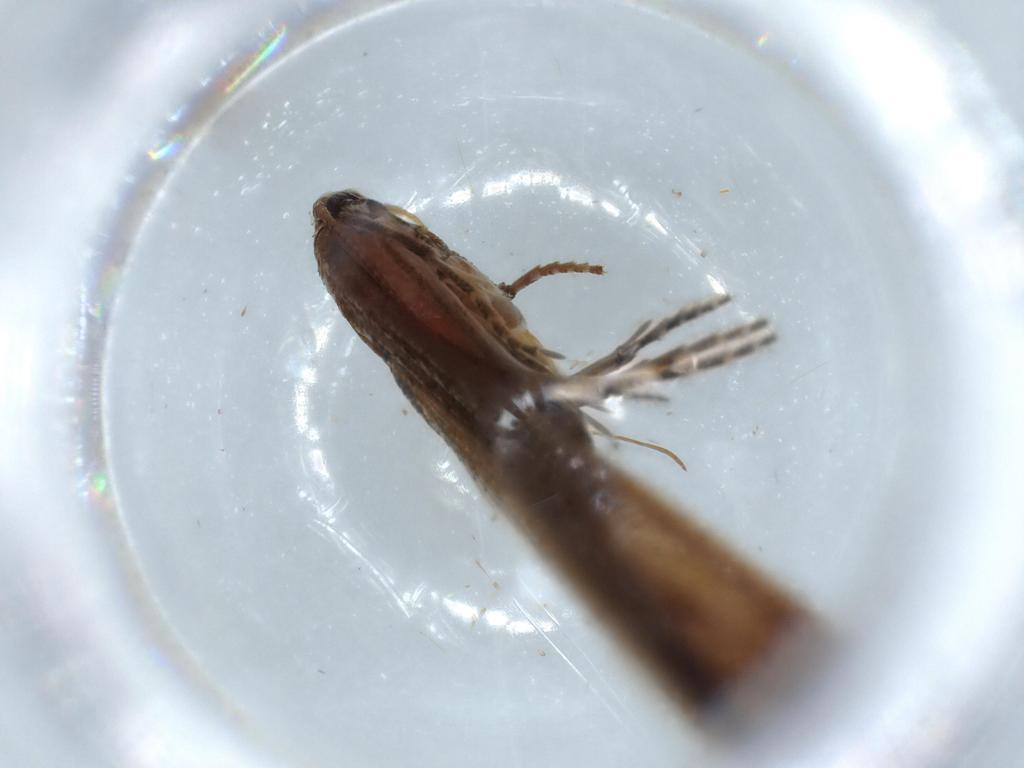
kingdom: Animalia
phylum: Arthropoda
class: Insecta
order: Lepidoptera
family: Stathmopodidae
